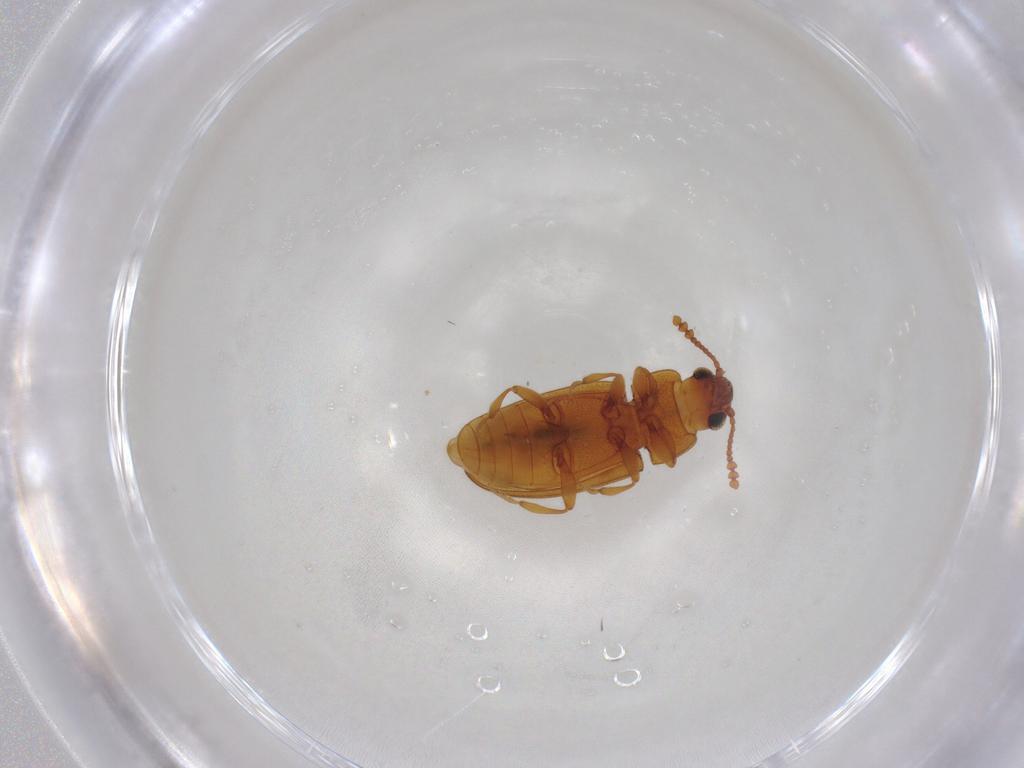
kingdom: Animalia
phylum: Arthropoda
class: Insecta
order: Coleoptera
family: Erotylidae
